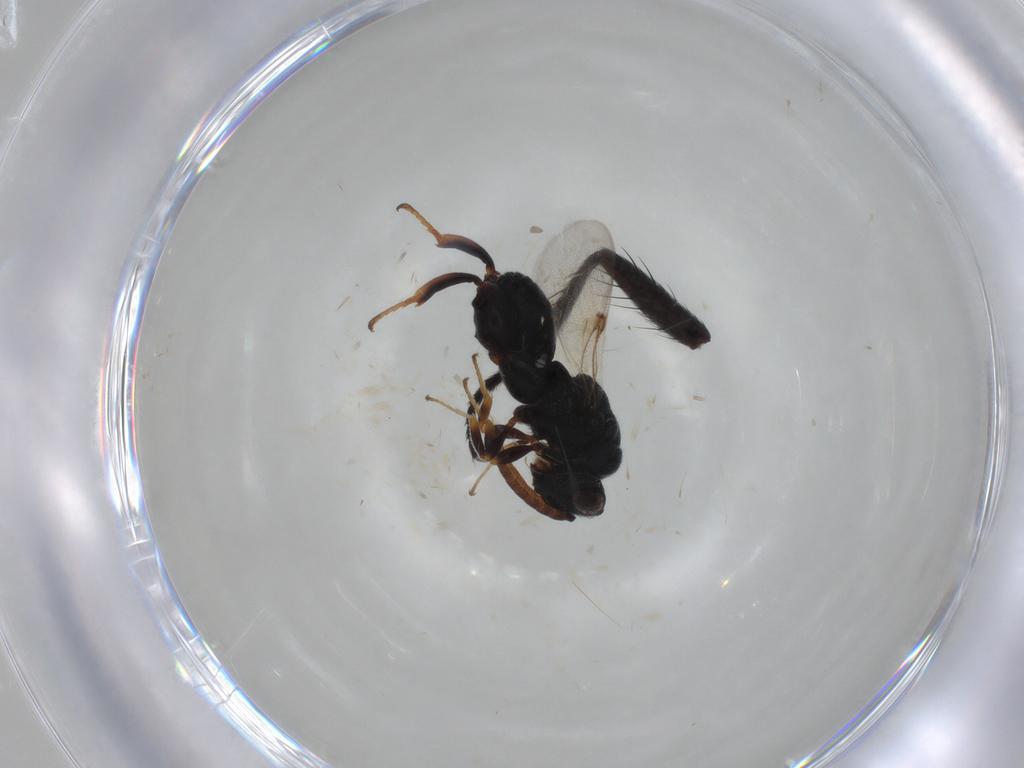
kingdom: Animalia
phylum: Arthropoda
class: Insecta
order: Hymenoptera
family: Chalcididae
